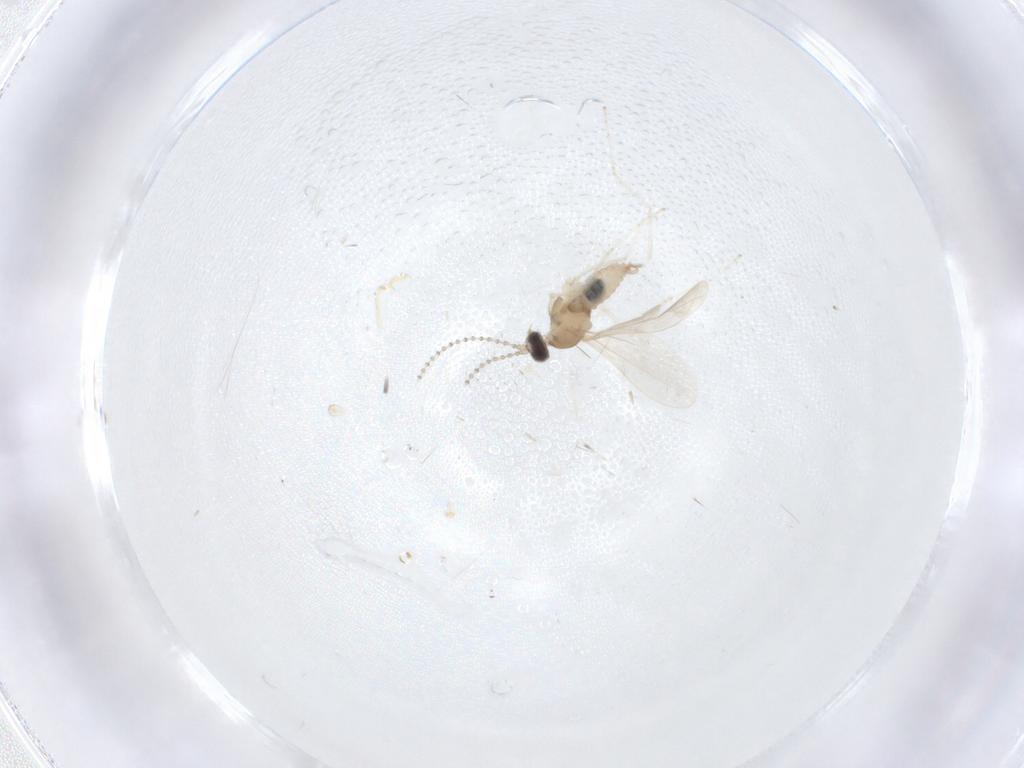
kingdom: Animalia
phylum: Arthropoda
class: Insecta
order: Diptera
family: Cecidomyiidae
